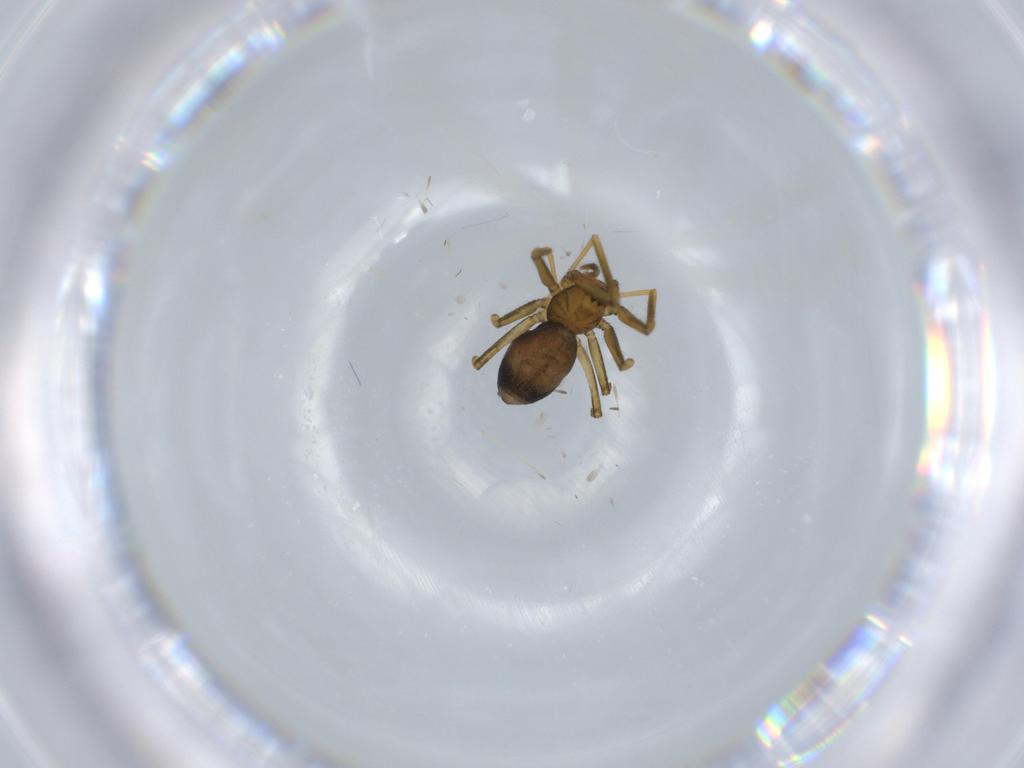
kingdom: Animalia
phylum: Arthropoda
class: Arachnida
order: Araneae
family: Linyphiidae
